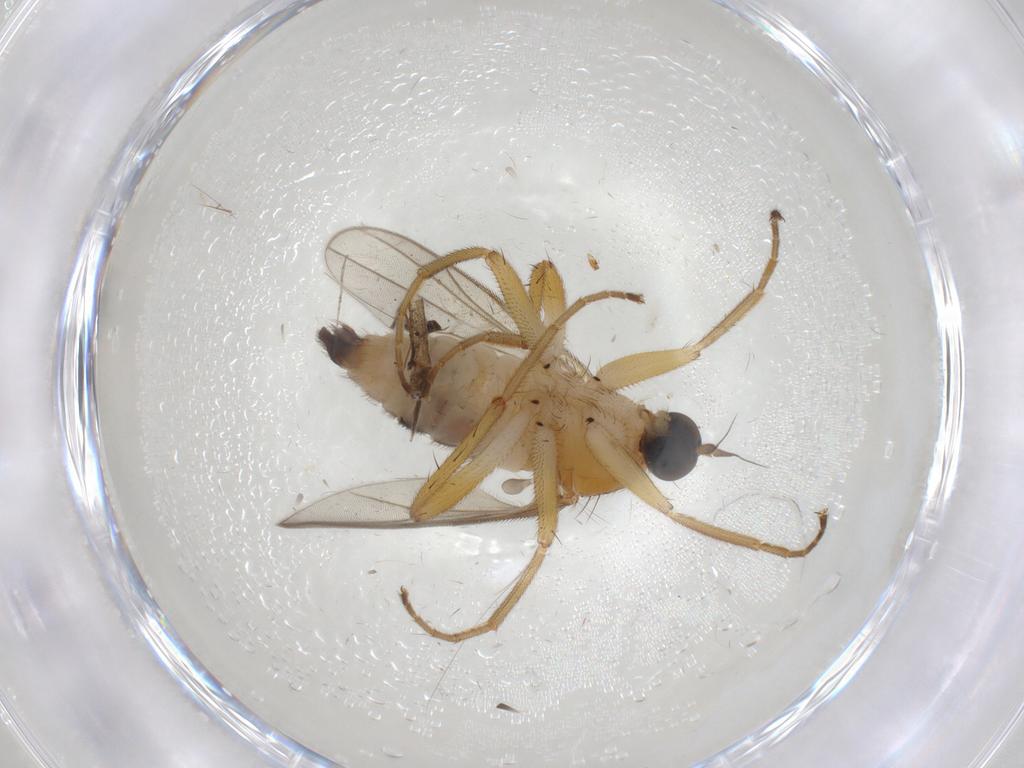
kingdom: Animalia
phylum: Arthropoda
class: Insecta
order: Diptera
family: Hybotidae
